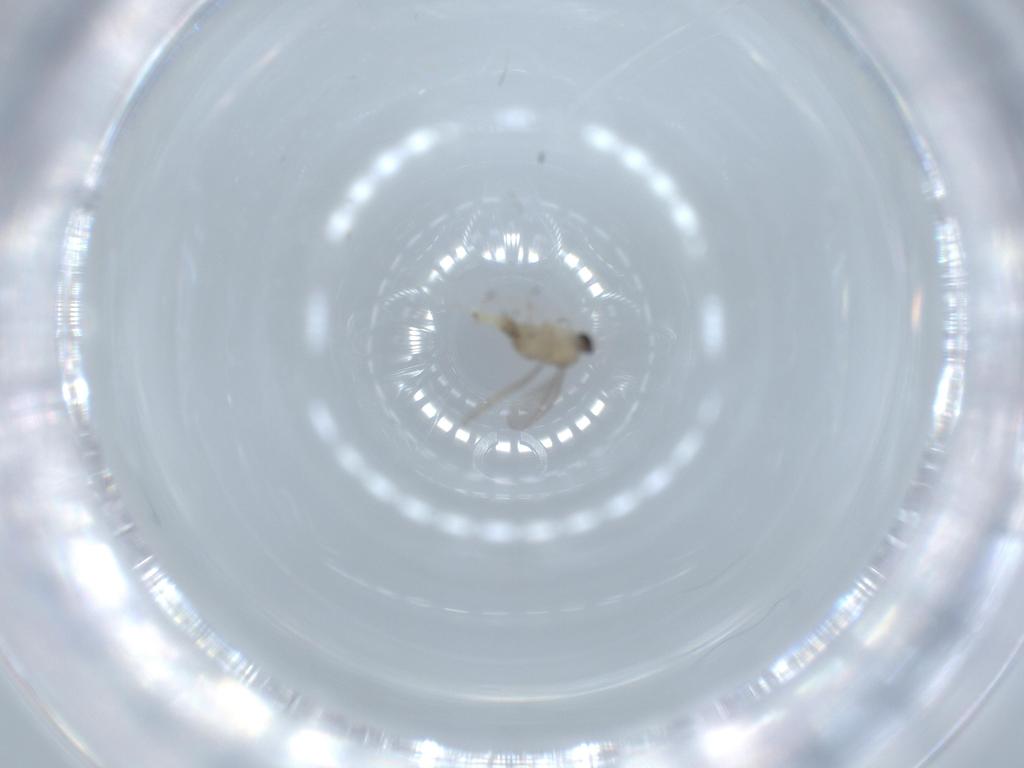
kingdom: Animalia
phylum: Arthropoda
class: Insecta
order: Diptera
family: Cecidomyiidae
